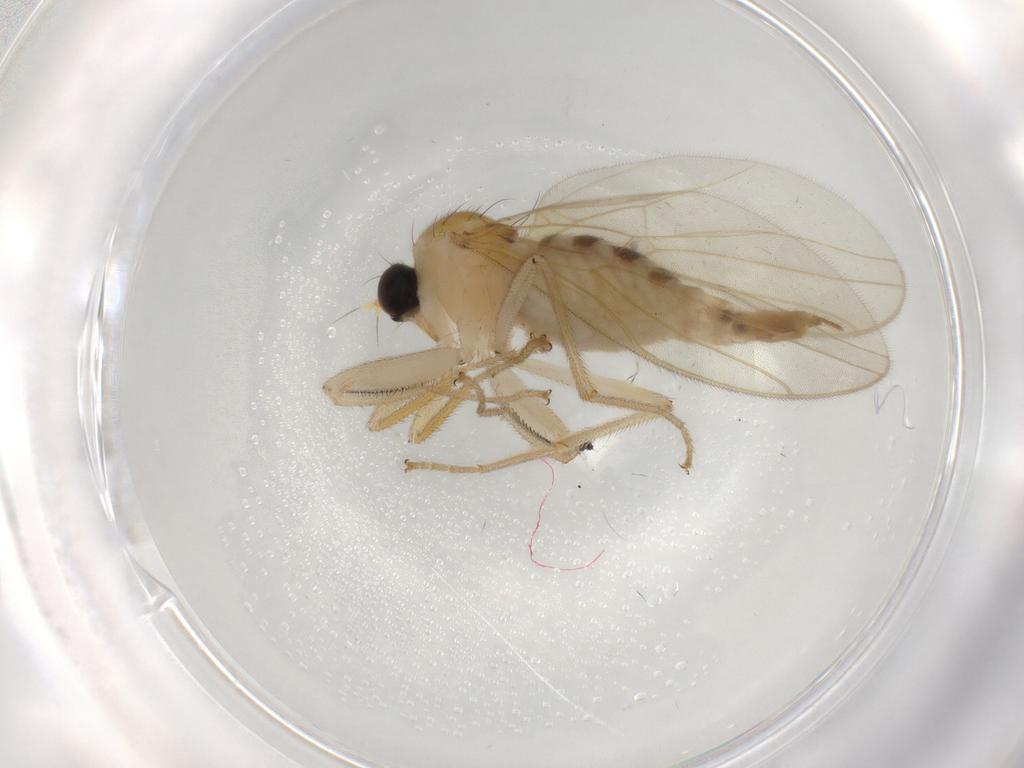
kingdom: Animalia
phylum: Arthropoda
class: Insecta
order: Diptera
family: Hybotidae
